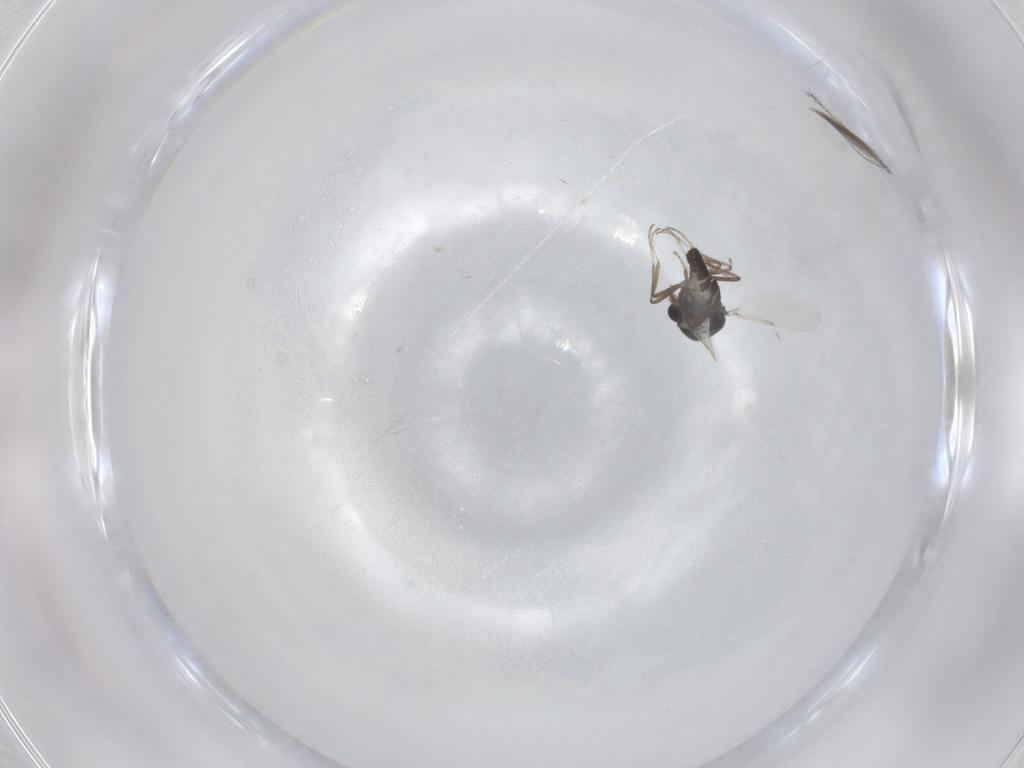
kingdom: Animalia
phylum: Arthropoda
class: Insecta
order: Diptera
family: Ceratopogonidae
